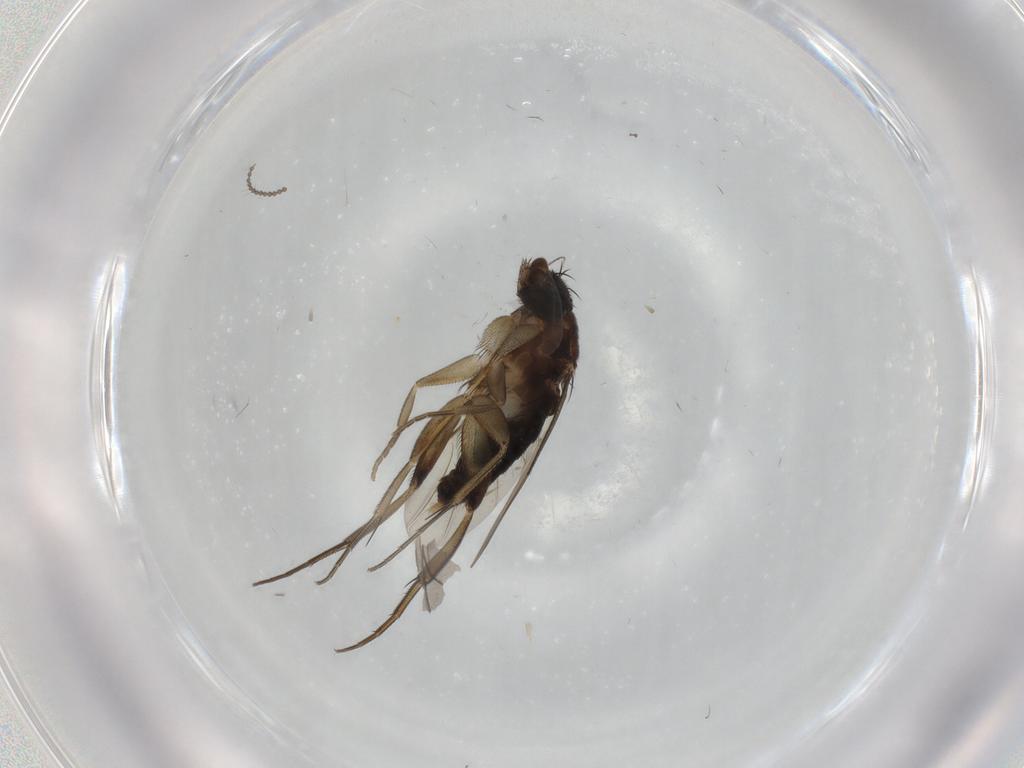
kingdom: Animalia
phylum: Arthropoda
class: Insecta
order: Diptera
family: Phoridae
